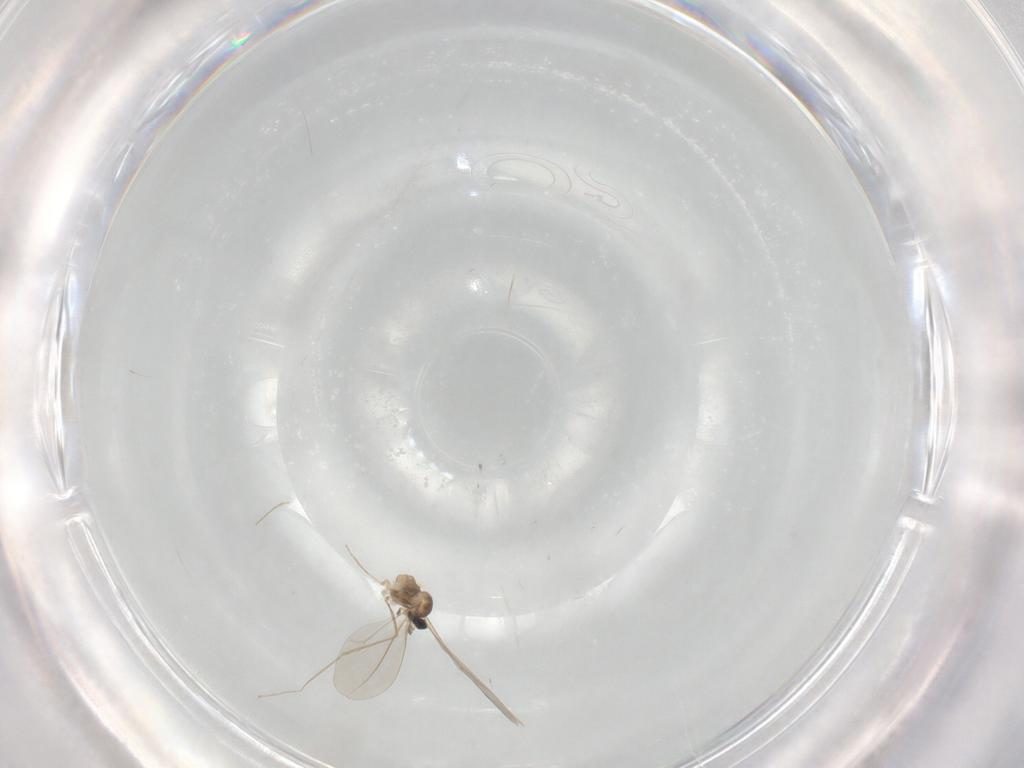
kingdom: Animalia
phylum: Arthropoda
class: Insecta
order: Diptera
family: Cecidomyiidae
